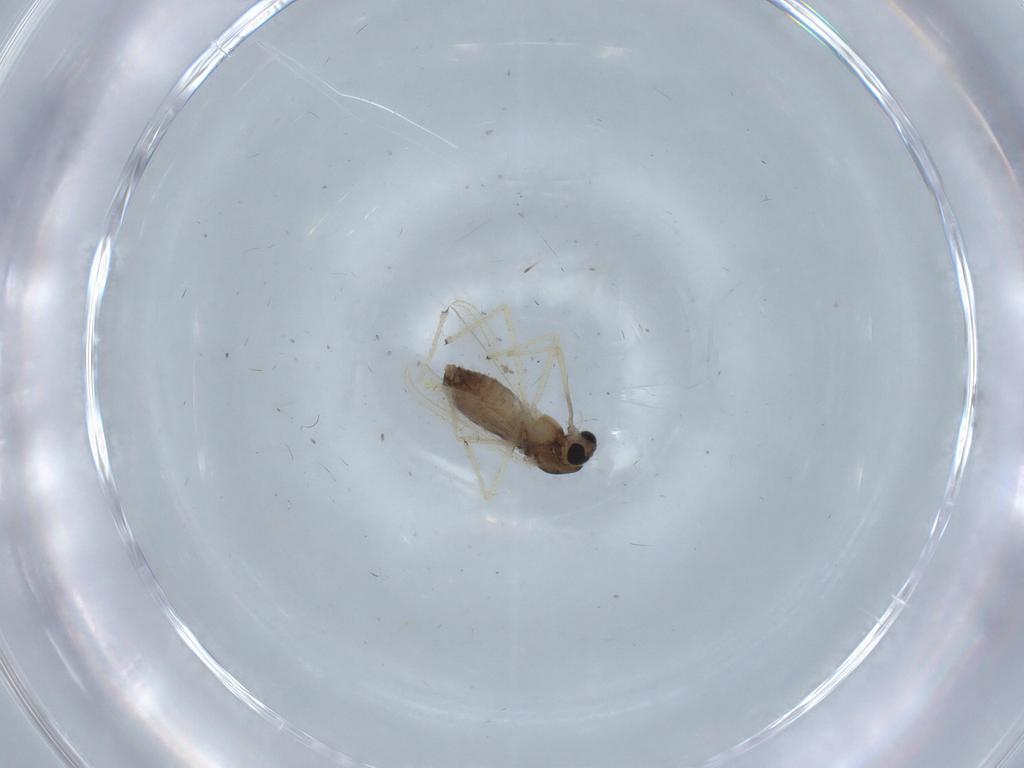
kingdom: Animalia
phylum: Arthropoda
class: Insecta
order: Diptera
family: Chironomidae
